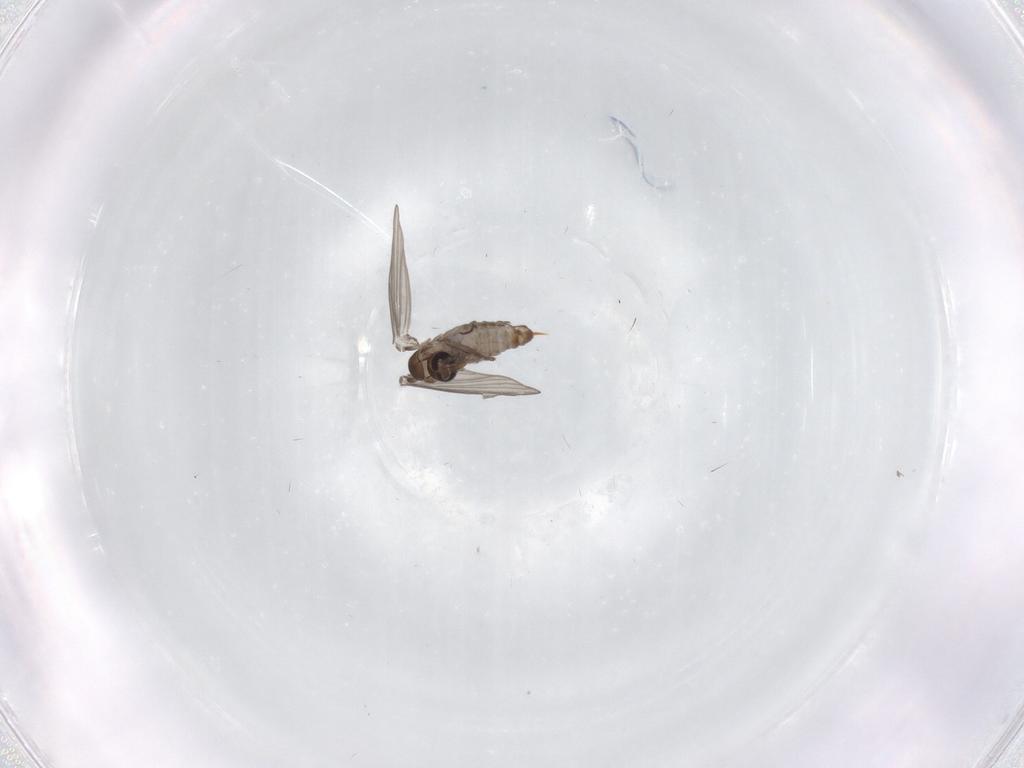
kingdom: Animalia
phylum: Arthropoda
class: Insecta
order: Diptera
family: Psychodidae
